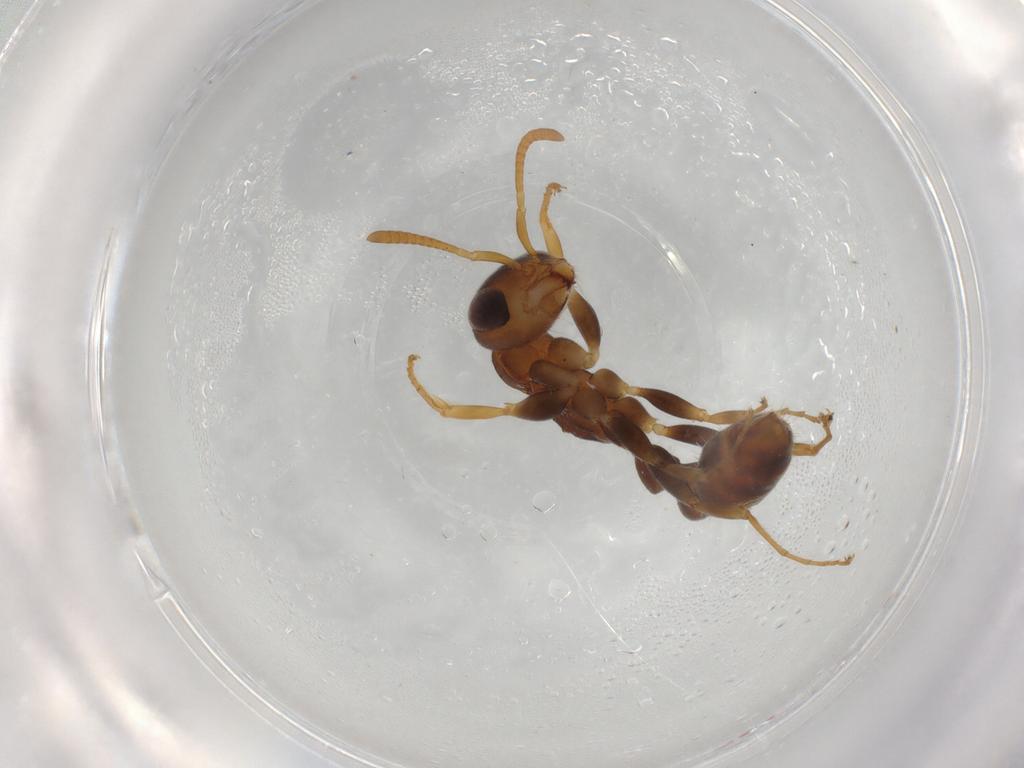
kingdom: Animalia
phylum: Arthropoda
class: Insecta
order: Hymenoptera
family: Formicidae
